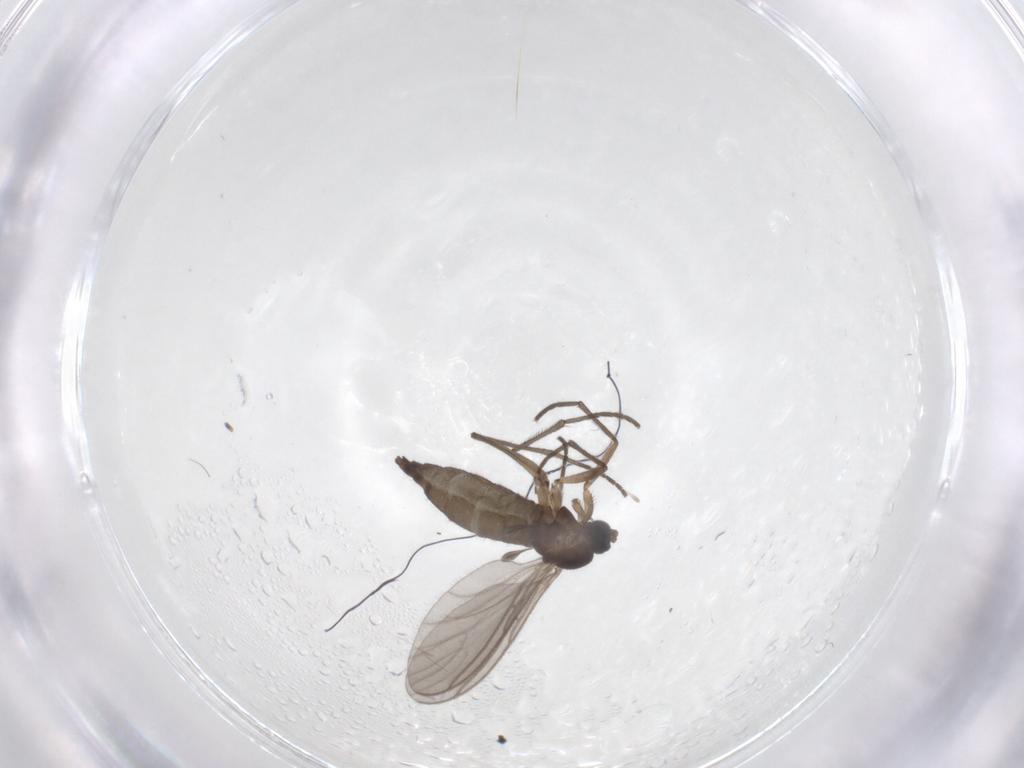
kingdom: Animalia
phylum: Arthropoda
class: Insecta
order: Diptera
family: Sciaridae
